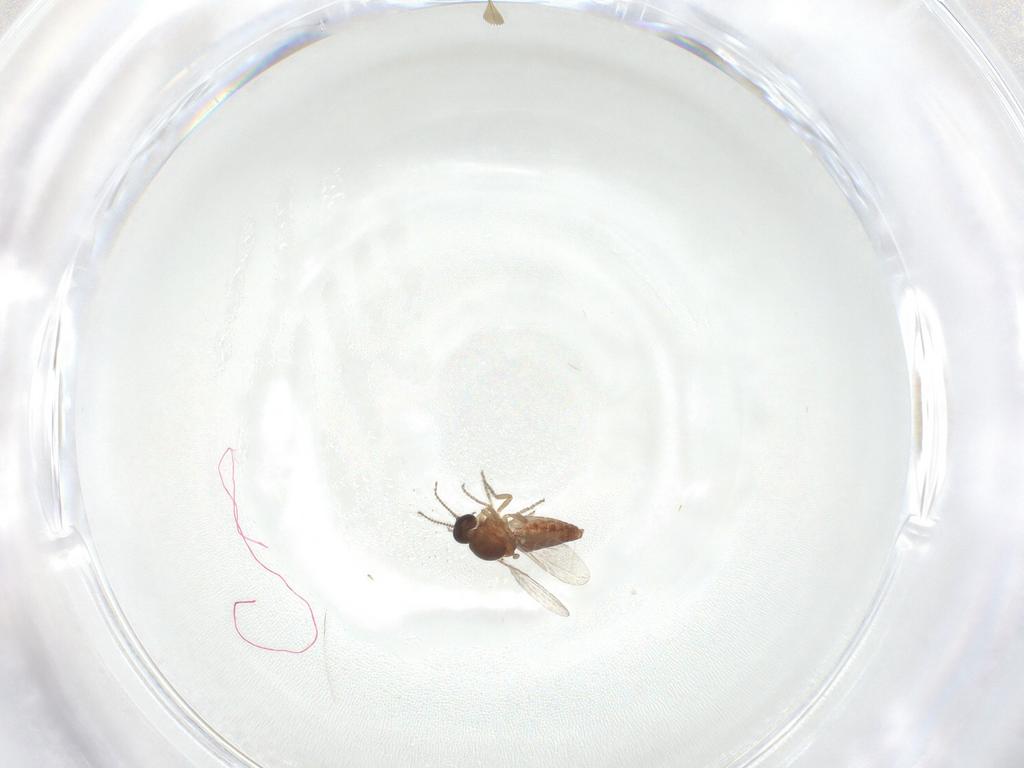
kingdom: Animalia
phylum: Arthropoda
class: Insecta
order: Diptera
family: Ceratopogonidae
